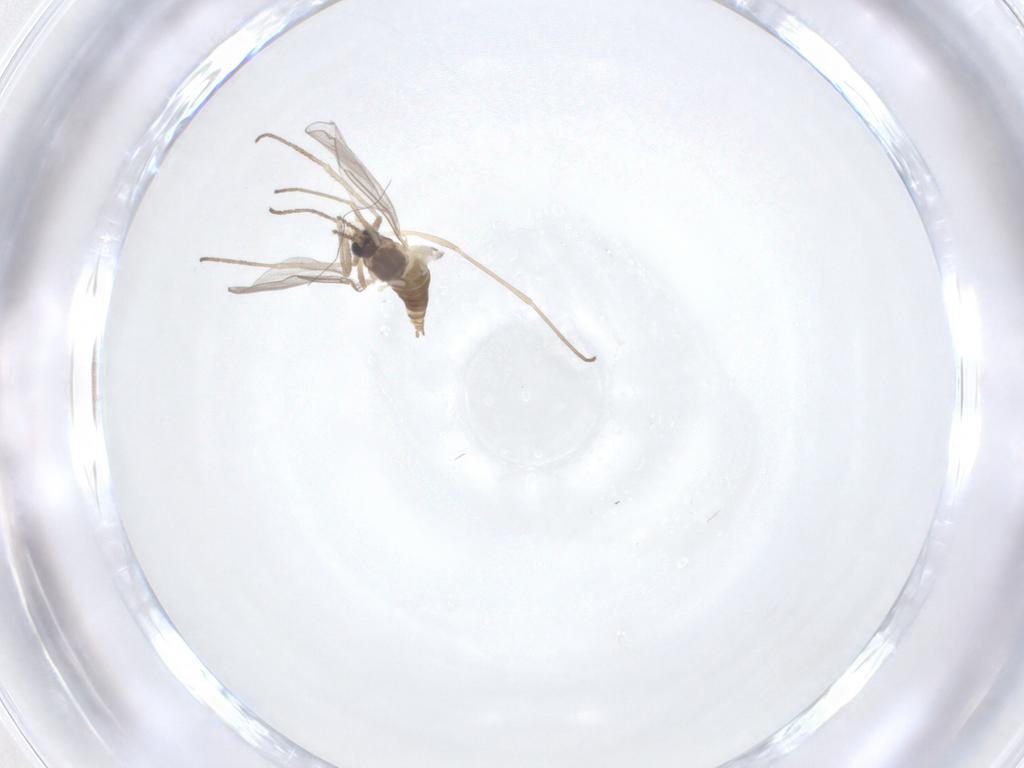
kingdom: Animalia
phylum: Arthropoda
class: Insecta
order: Diptera
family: Cecidomyiidae
